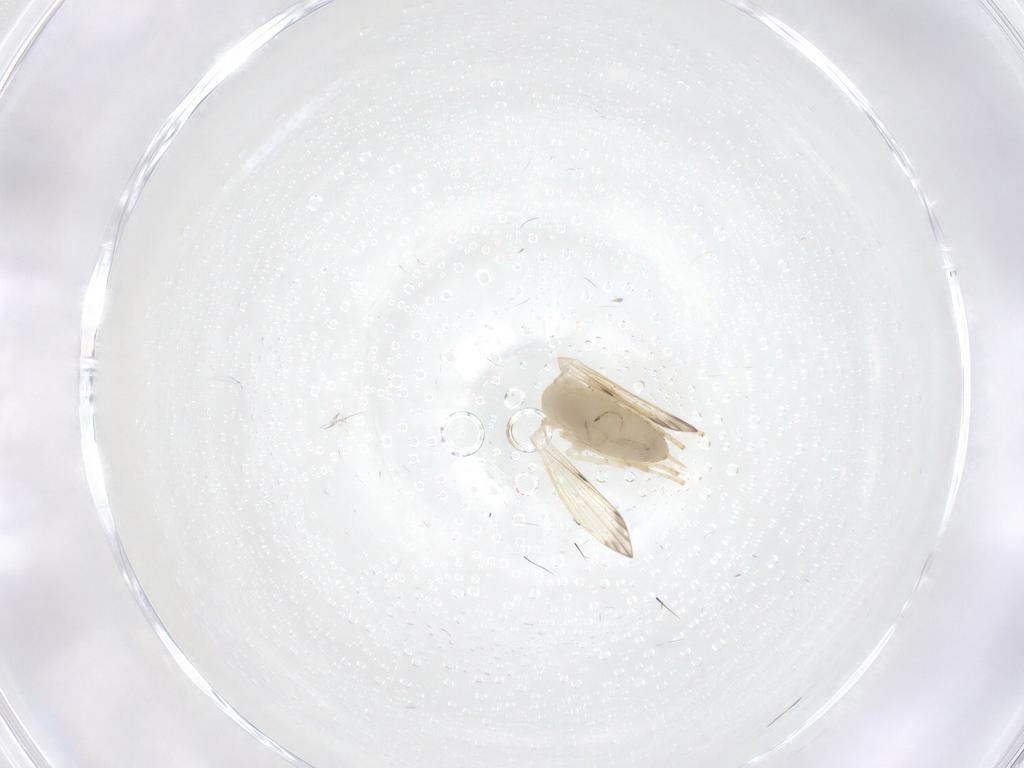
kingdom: Animalia
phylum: Arthropoda
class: Insecta
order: Diptera
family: Psychodidae
